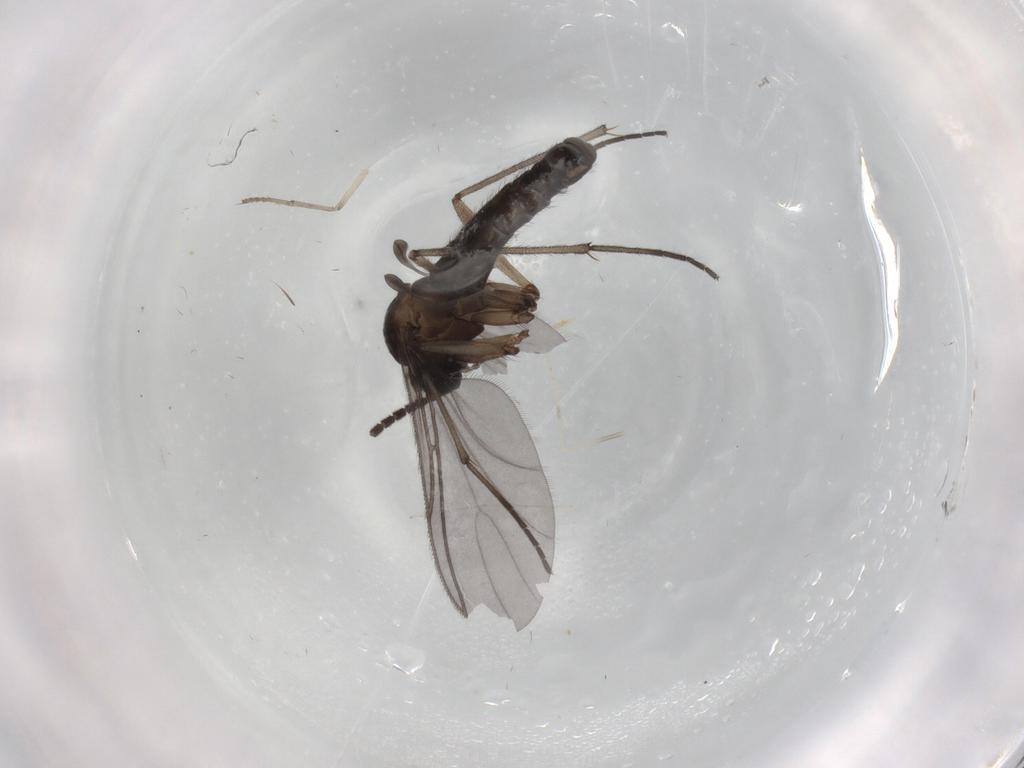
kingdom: Animalia
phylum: Arthropoda
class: Insecta
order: Diptera
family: Sciaridae
